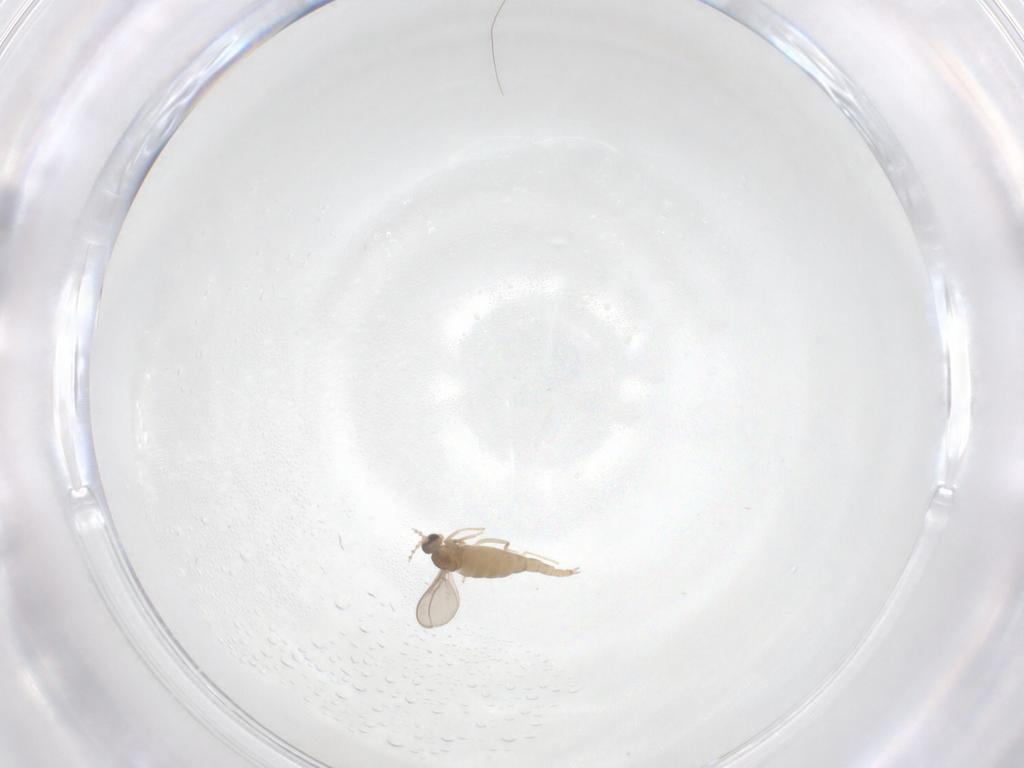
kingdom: Animalia
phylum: Arthropoda
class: Insecta
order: Diptera
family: Cecidomyiidae
